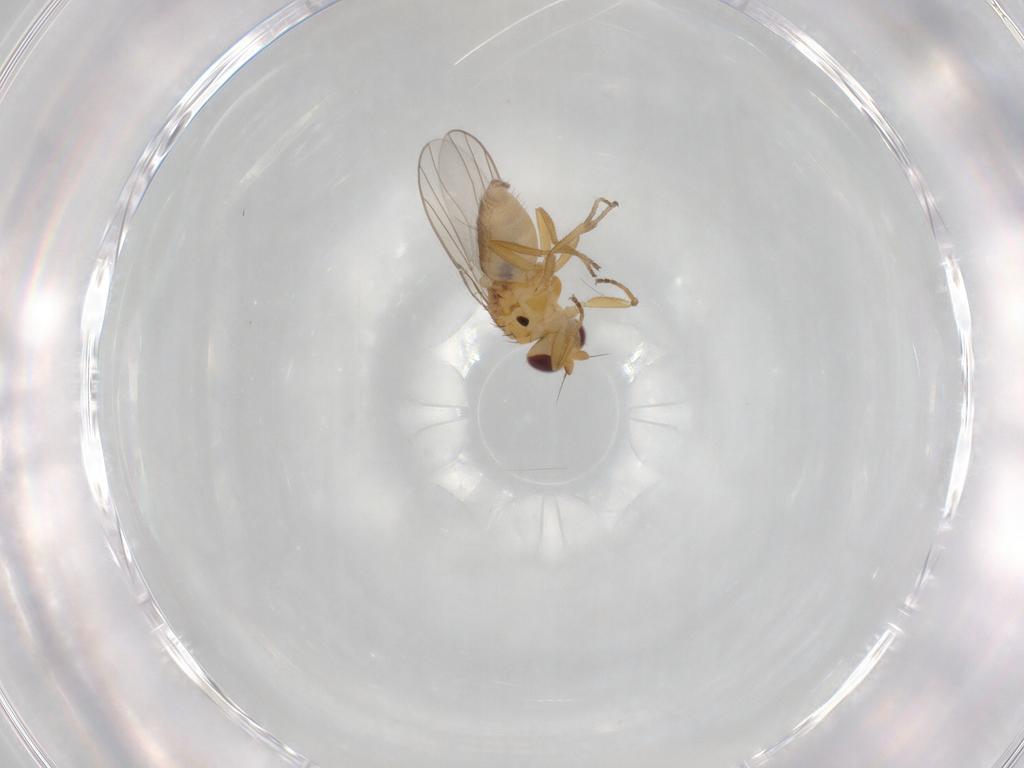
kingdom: Animalia
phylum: Arthropoda
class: Insecta
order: Diptera
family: Chloropidae
